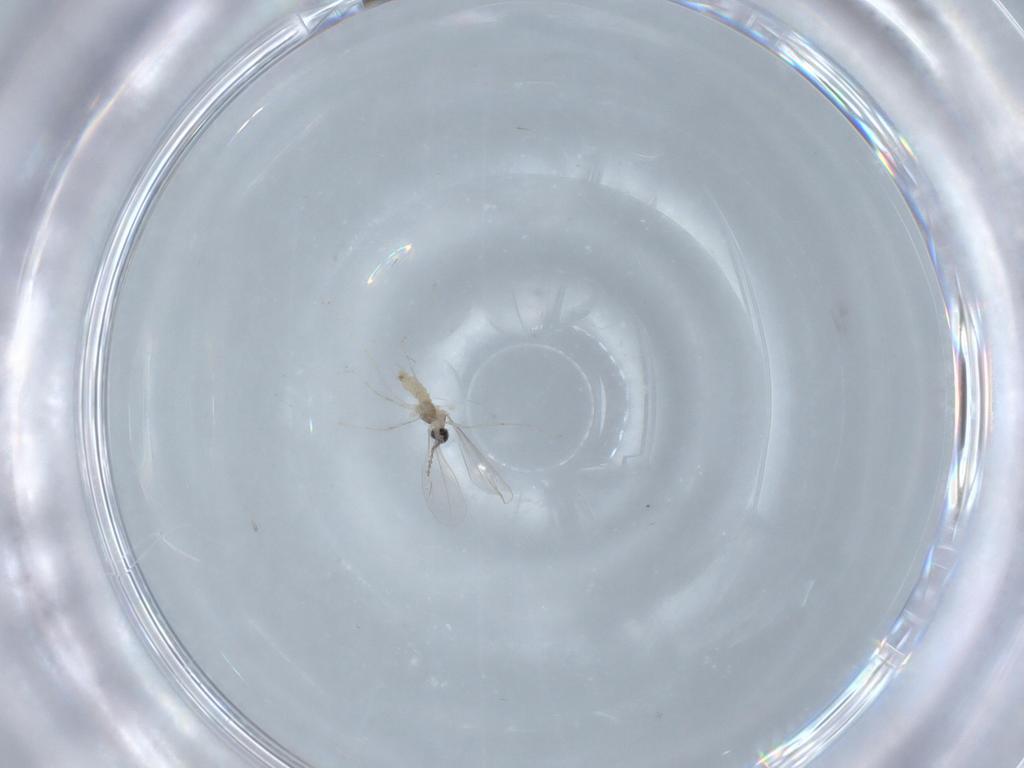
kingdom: Animalia
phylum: Arthropoda
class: Insecta
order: Diptera
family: Cecidomyiidae
